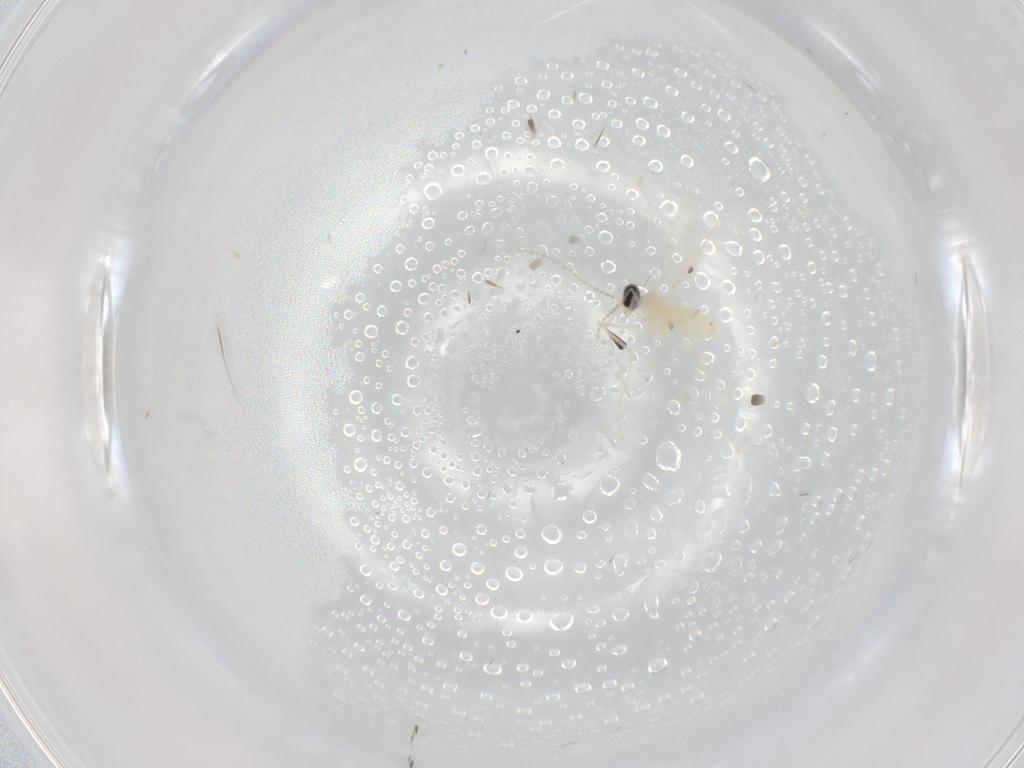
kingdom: Animalia
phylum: Arthropoda
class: Insecta
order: Diptera
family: Cecidomyiidae
